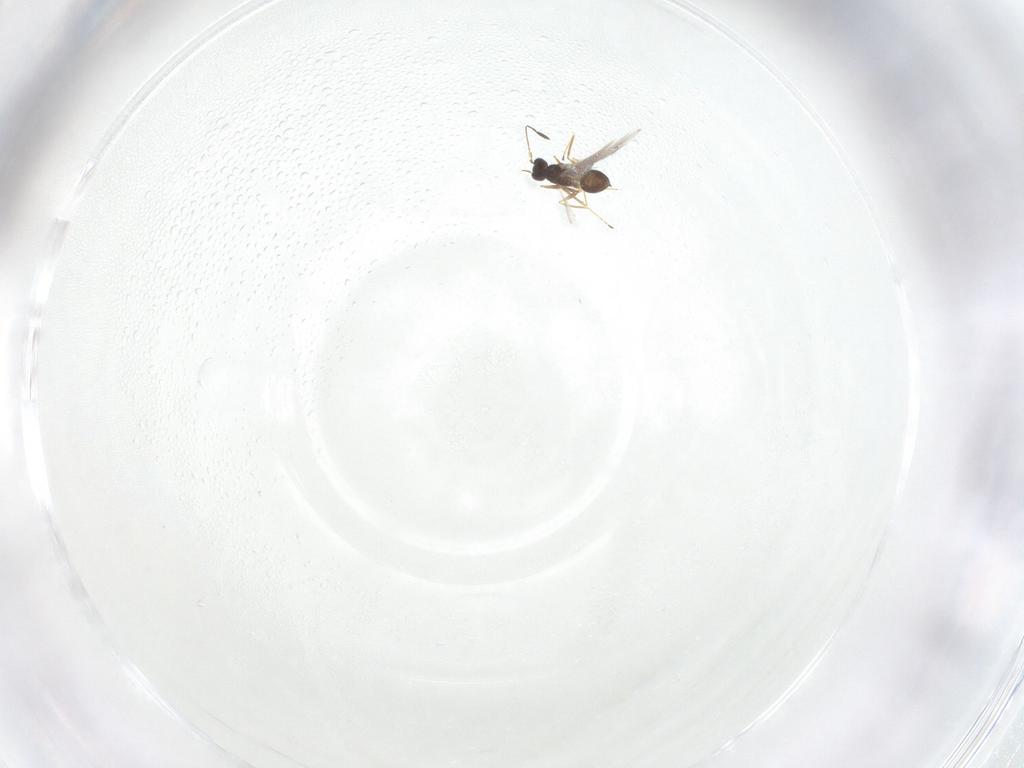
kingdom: Animalia
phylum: Arthropoda
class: Insecta
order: Hymenoptera
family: Mymaridae
